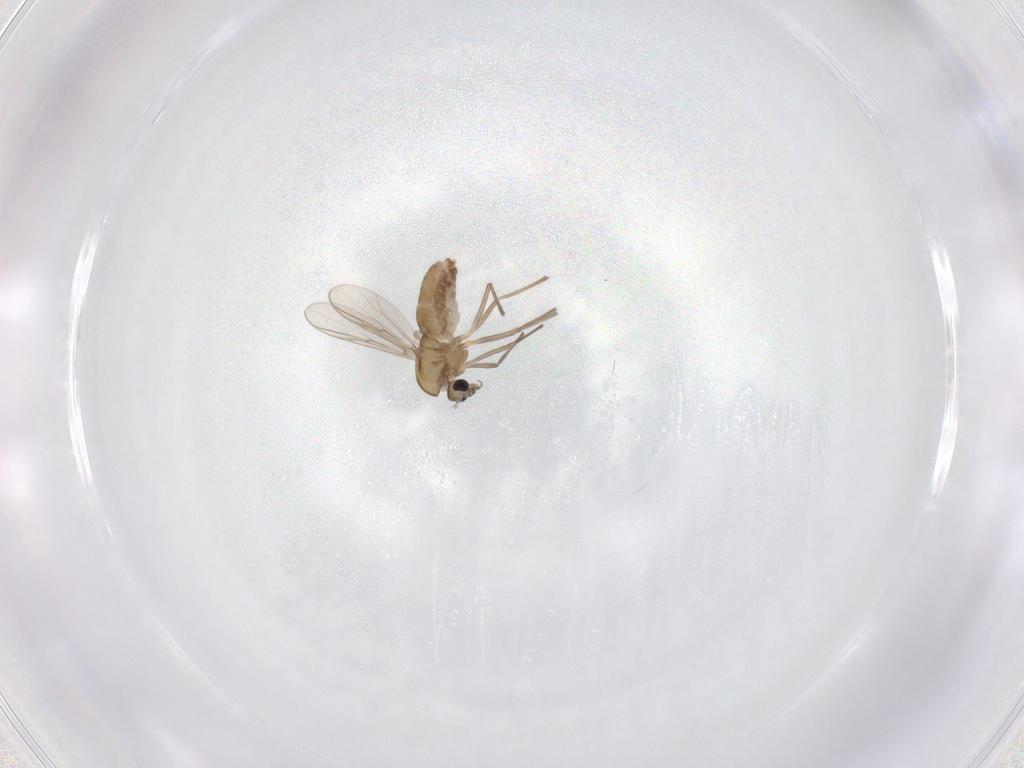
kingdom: Animalia
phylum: Arthropoda
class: Insecta
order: Diptera
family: Chironomidae
